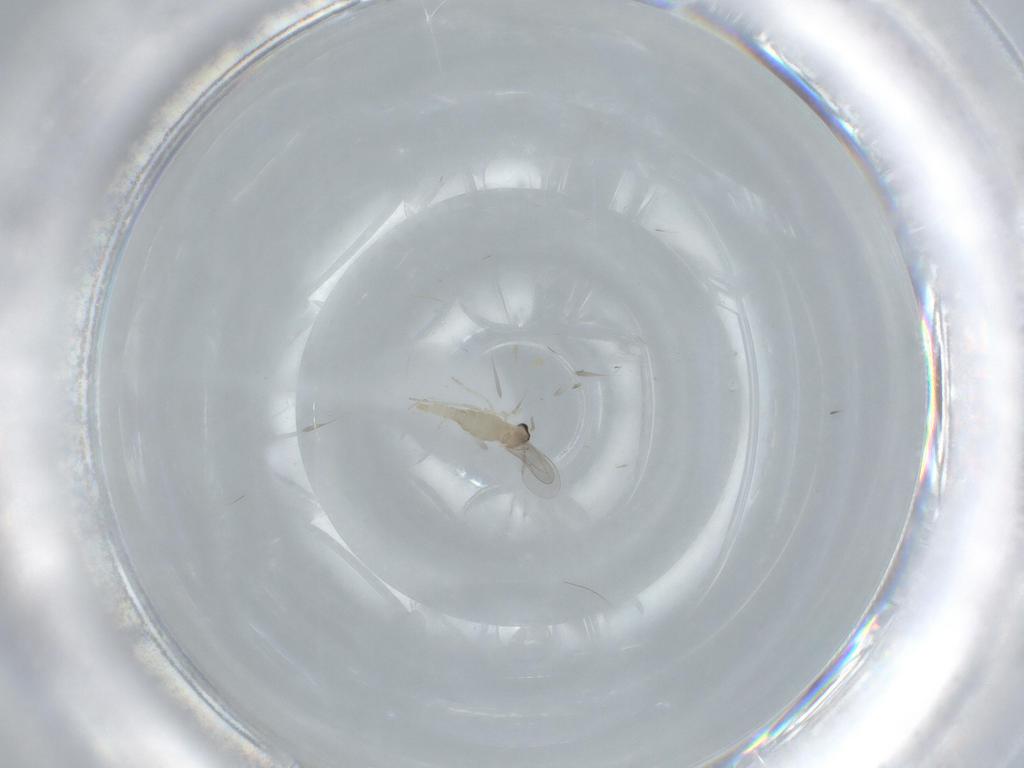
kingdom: Animalia
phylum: Arthropoda
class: Insecta
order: Diptera
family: Cecidomyiidae
